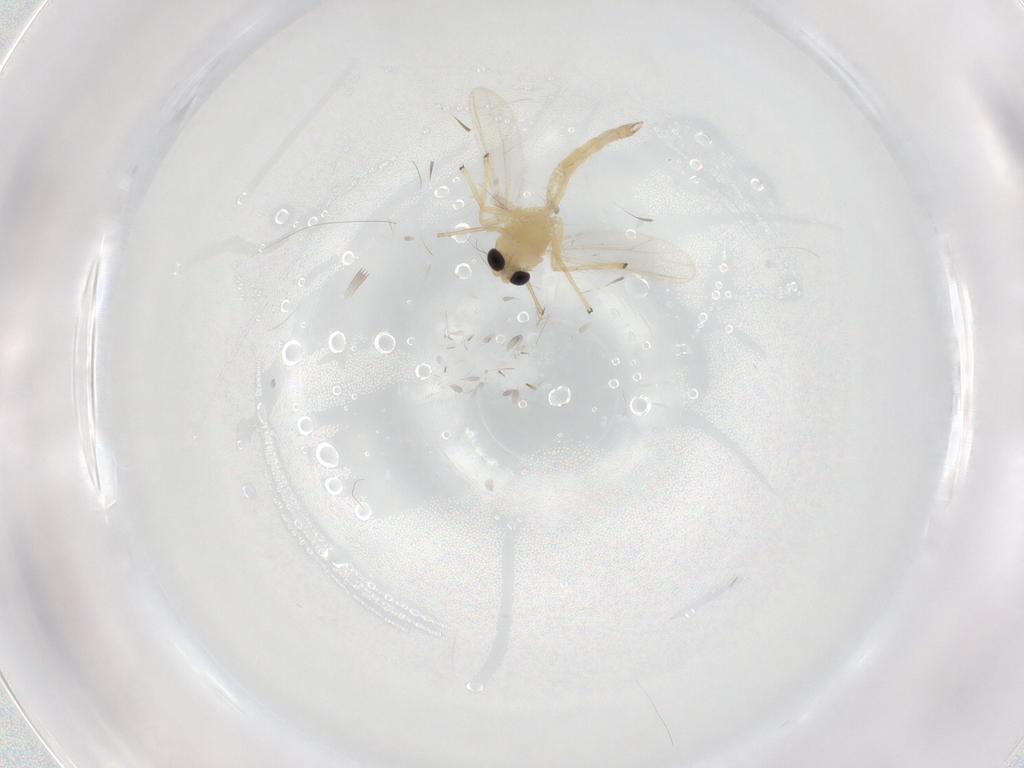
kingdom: Animalia
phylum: Arthropoda
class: Insecta
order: Diptera
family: Chironomidae
